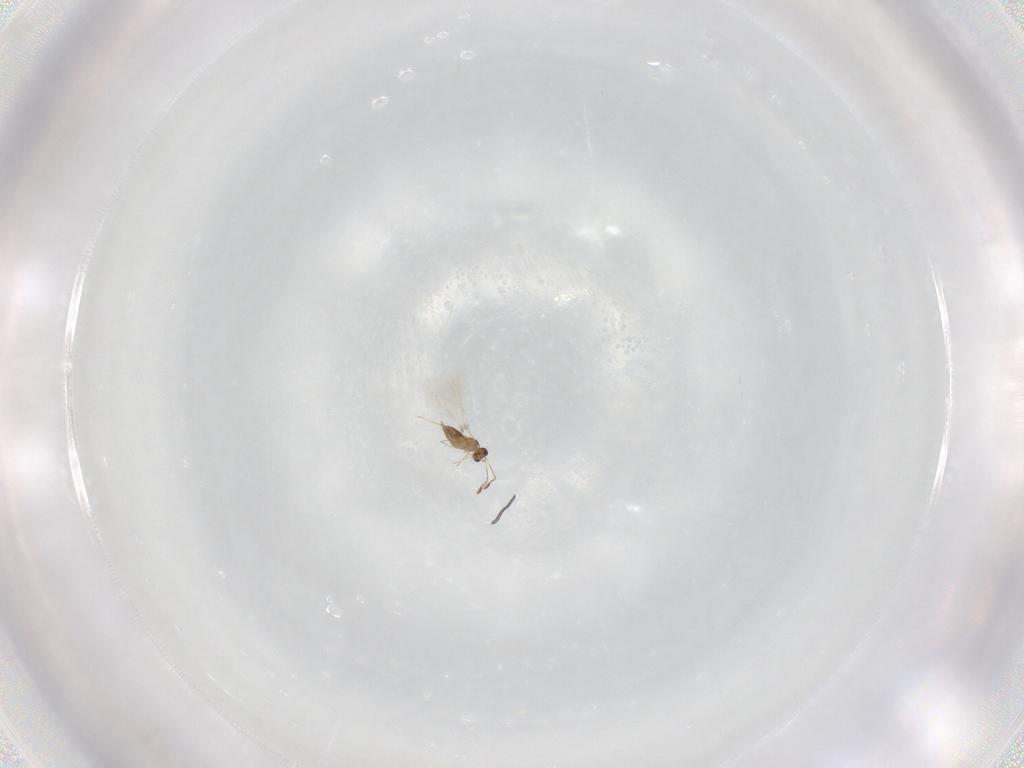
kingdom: Animalia
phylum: Arthropoda
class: Insecta
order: Hymenoptera
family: Mymaridae
